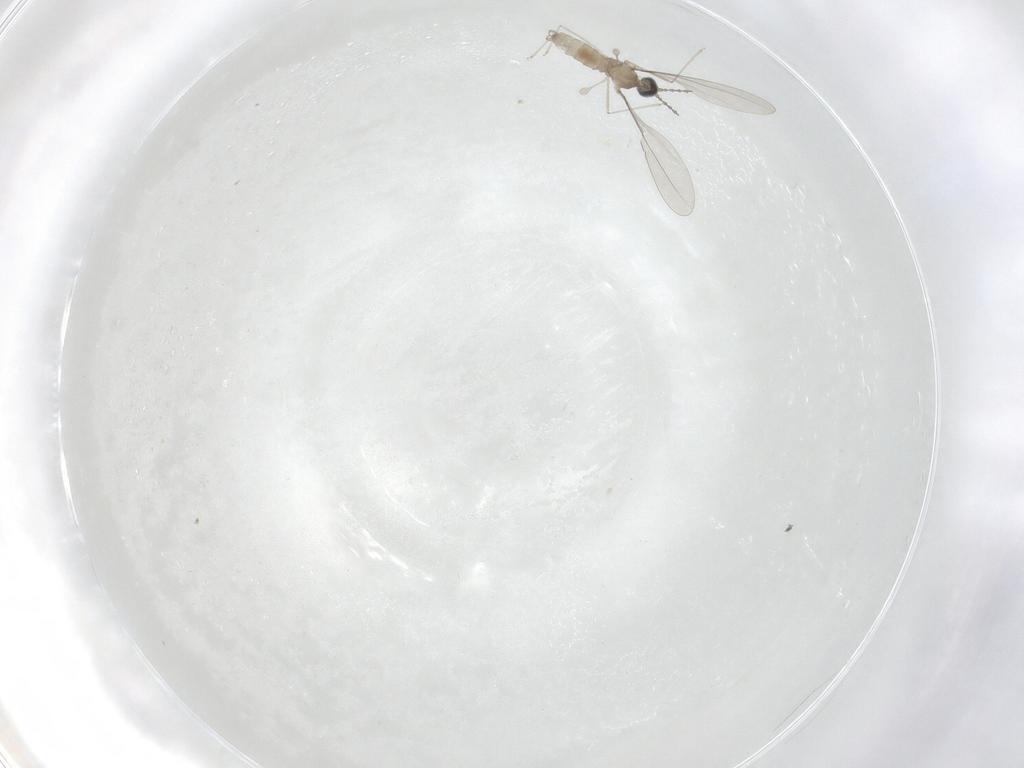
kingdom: Animalia
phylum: Arthropoda
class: Insecta
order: Diptera
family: Drosophilidae
